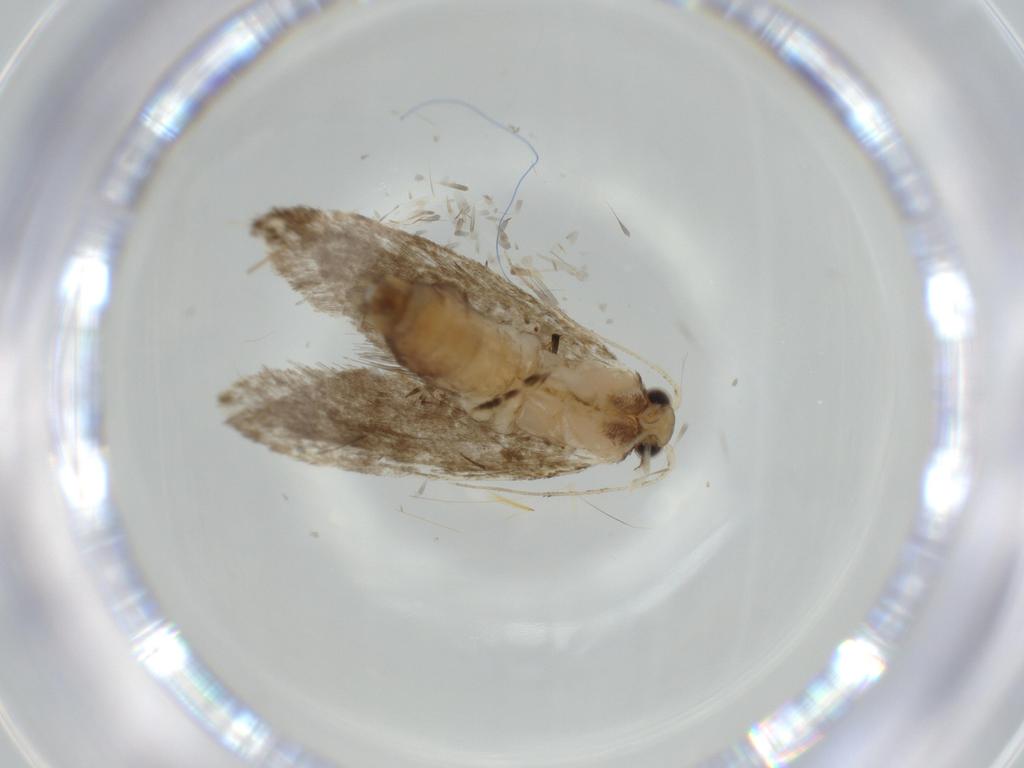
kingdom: Animalia
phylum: Arthropoda
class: Insecta
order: Lepidoptera
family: Tineidae
